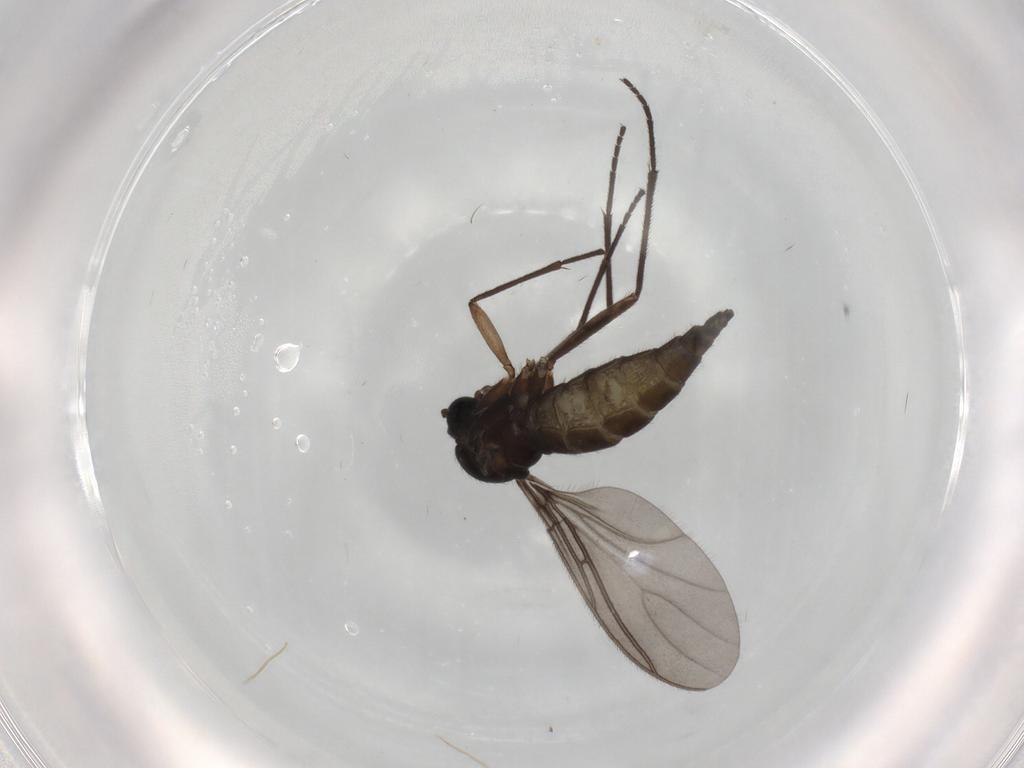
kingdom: Animalia
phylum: Arthropoda
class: Insecta
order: Diptera
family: Sciaridae
